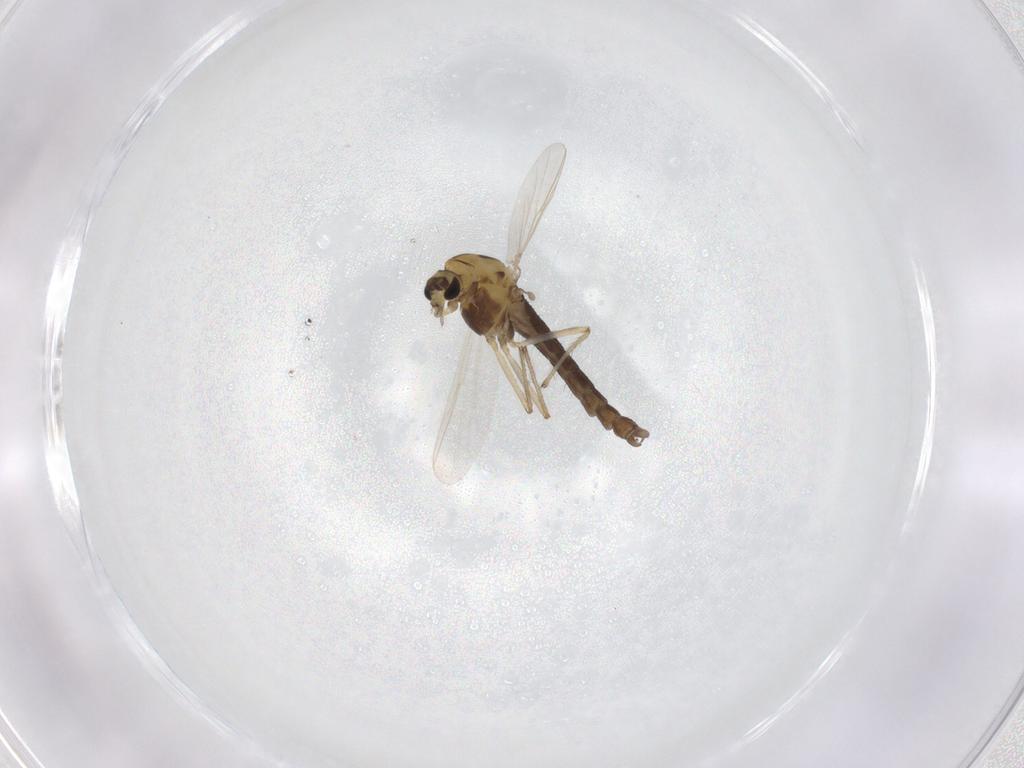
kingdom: Animalia
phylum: Arthropoda
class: Insecta
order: Diptera
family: Chironomidae
